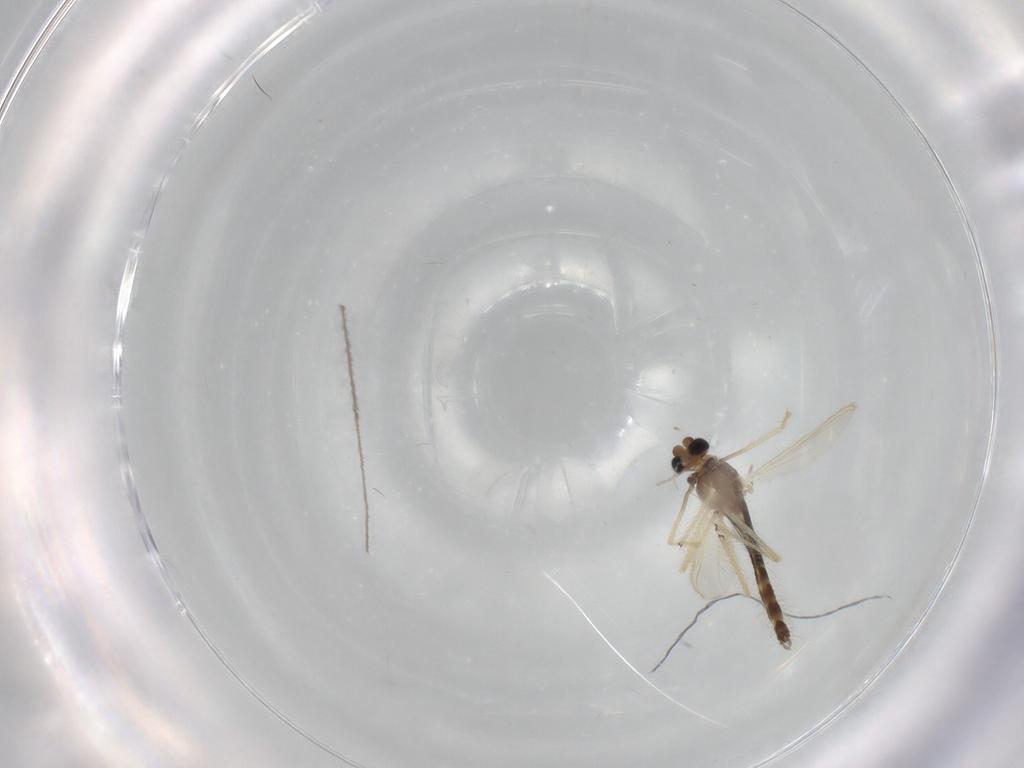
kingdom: Animalia
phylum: Arthropoda
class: Insecta
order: Diptera
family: Chironomidae
